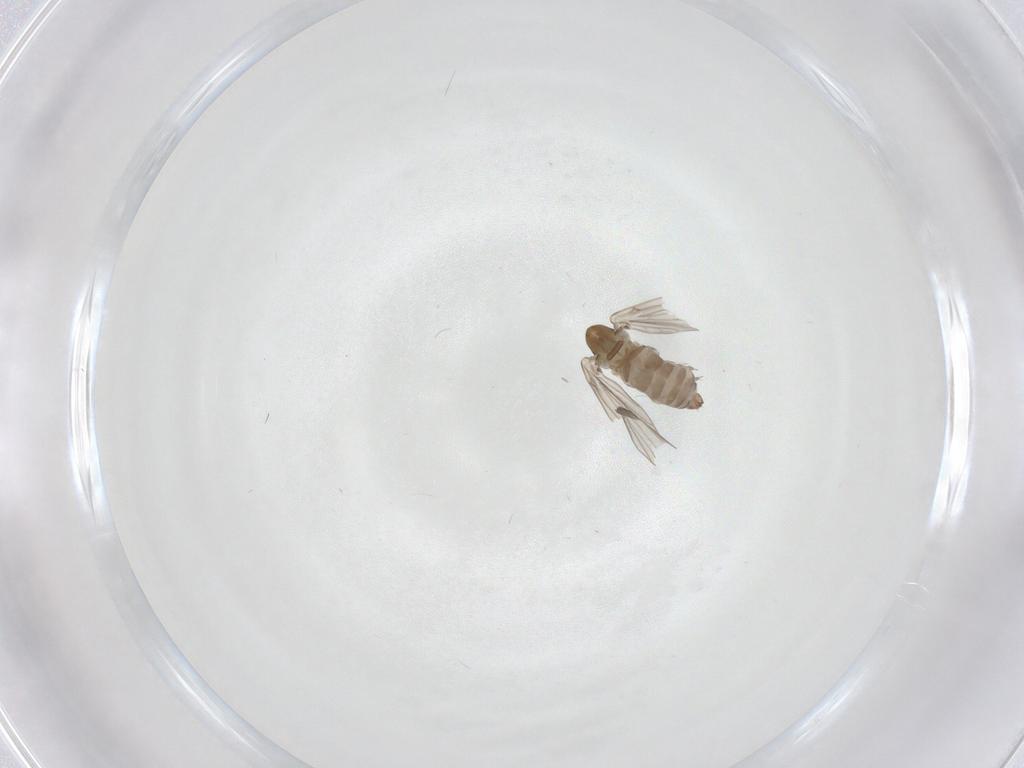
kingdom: Animalia
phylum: Arthropoda
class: Insecta
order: Diptera
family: Psychodidae
